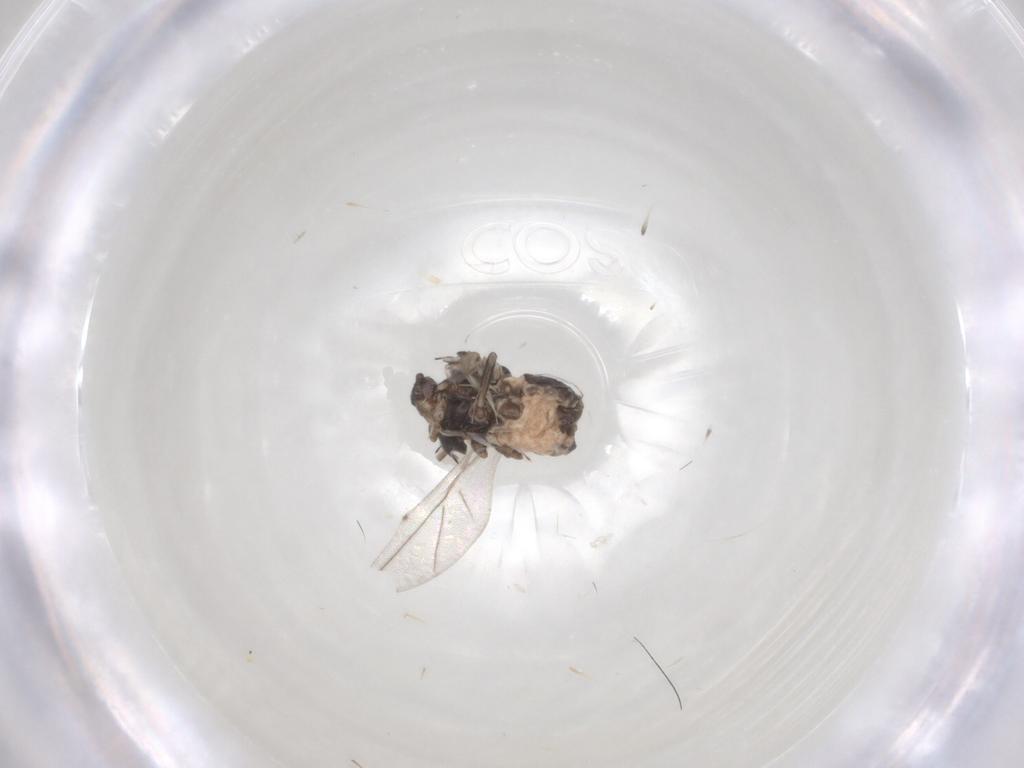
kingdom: Animalia
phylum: Arthropoda
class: Insecta
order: Hemiptera
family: Aphididae
